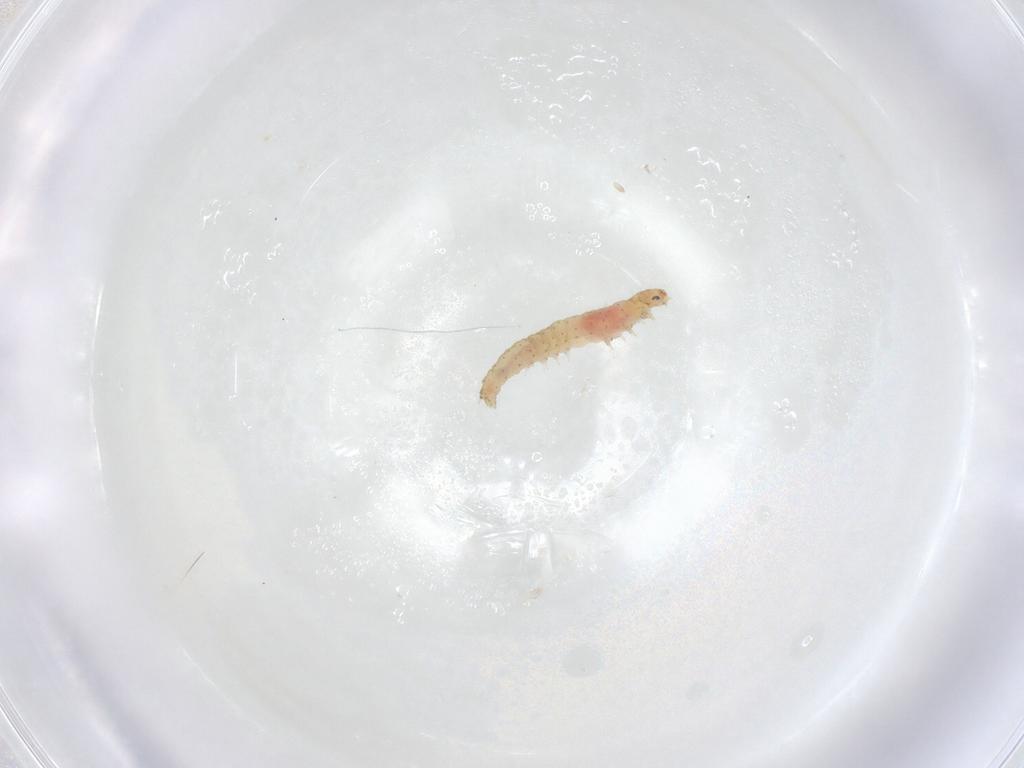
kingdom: Animalia
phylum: Arthropoda
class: Insecta
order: Lepidoptera
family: Gelechiidae
